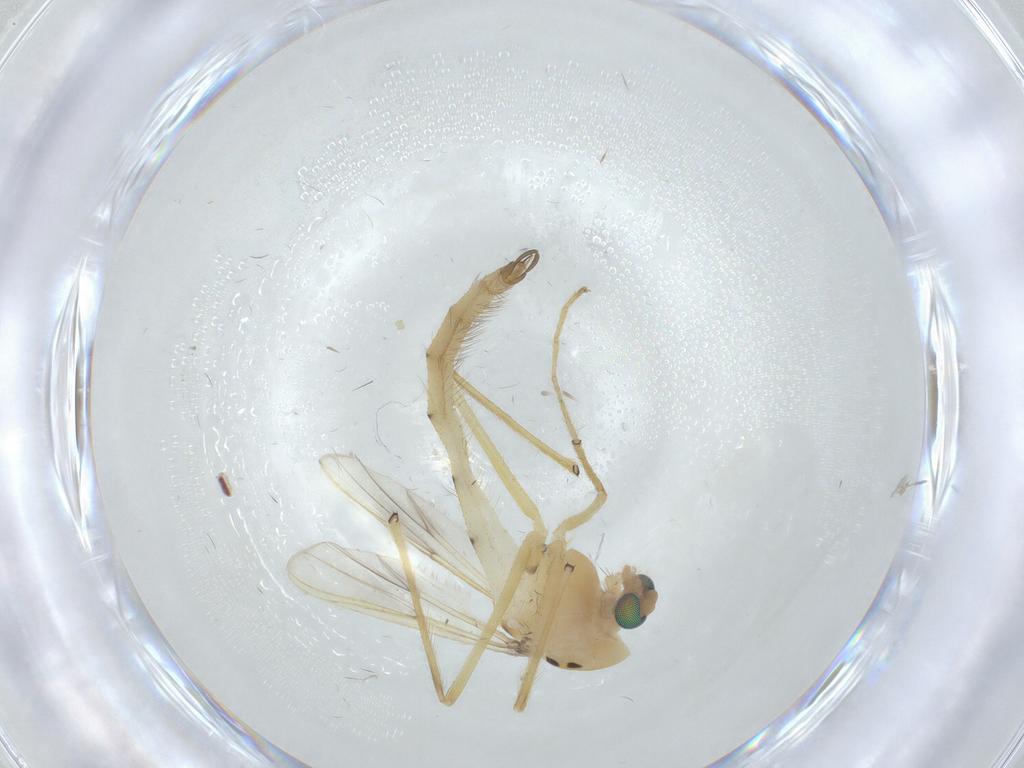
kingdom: Animalia
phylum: Arthropoda
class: Insecta
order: Diptera
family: Chironomidae
